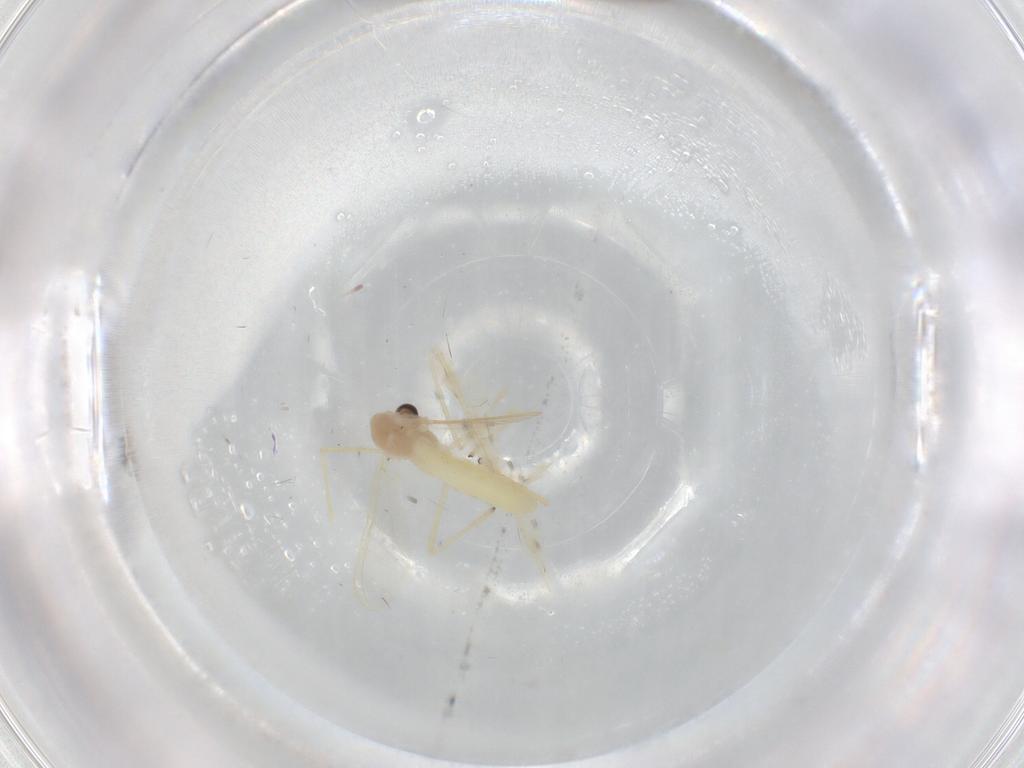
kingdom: Animalia
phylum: Arthropoda
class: Insecta
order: Diptera
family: Chironomidae
